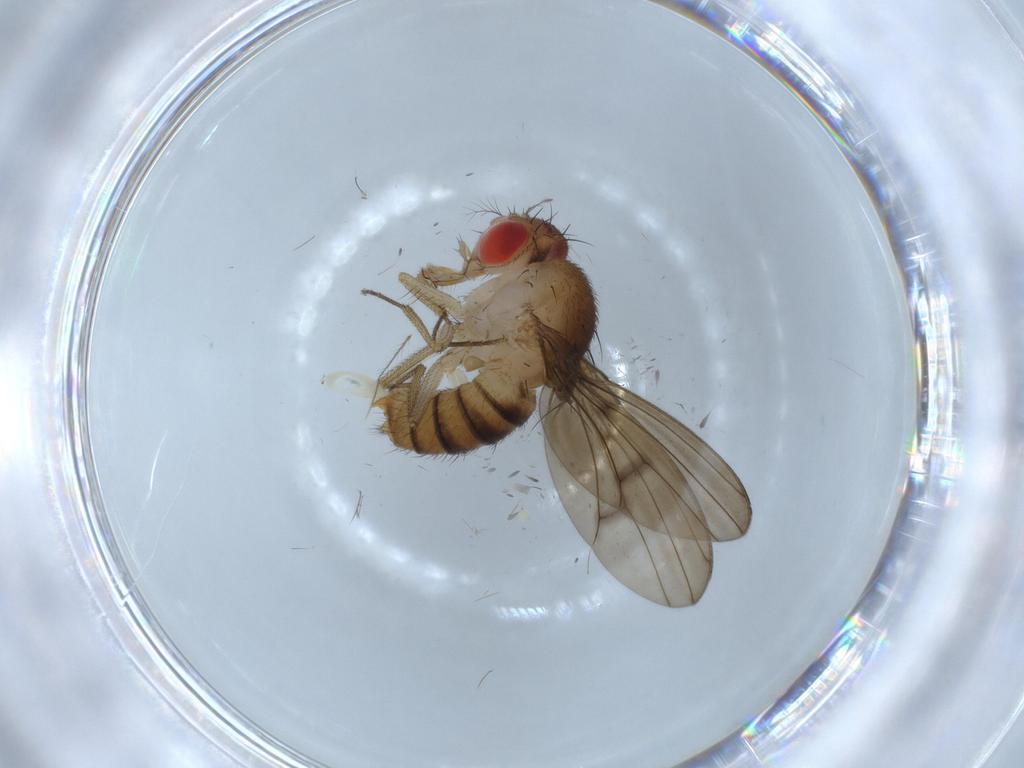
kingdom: Animalia
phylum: Arthropoda
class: Insecta
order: Diptera
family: Drosophilidae
